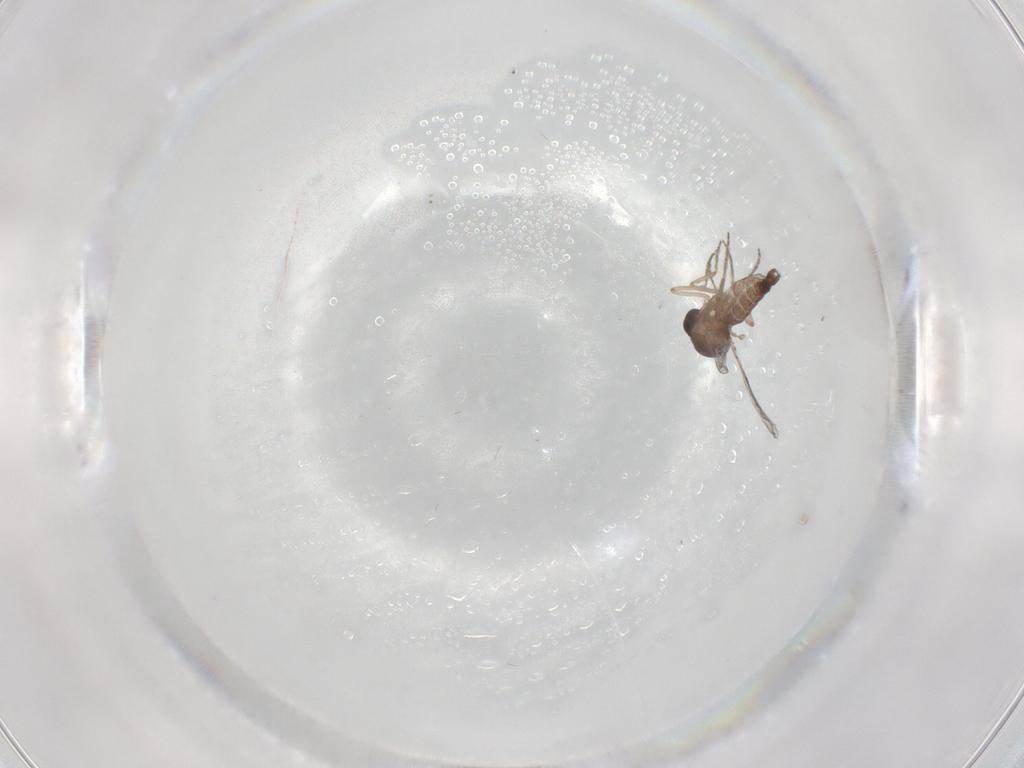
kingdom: Animalia
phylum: Arthropoda
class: Insecta
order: Diptera
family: Ceratopogonidae
